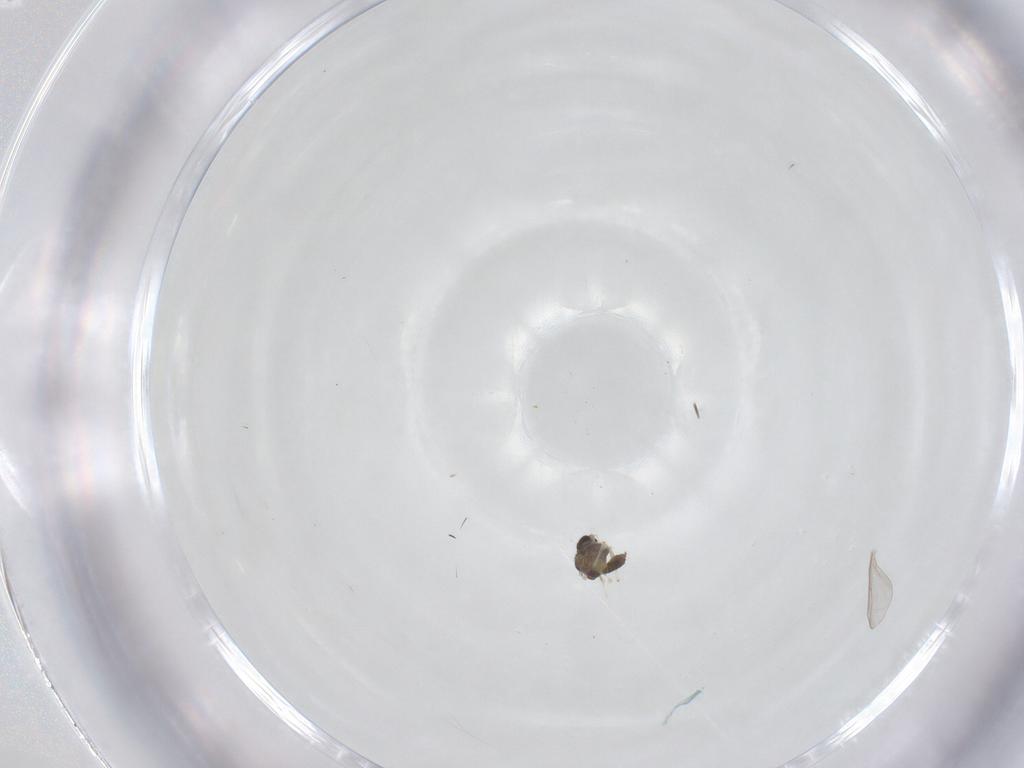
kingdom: Animalia
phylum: Arthropoda
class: Insecta
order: Diptera
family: Chironomidae
